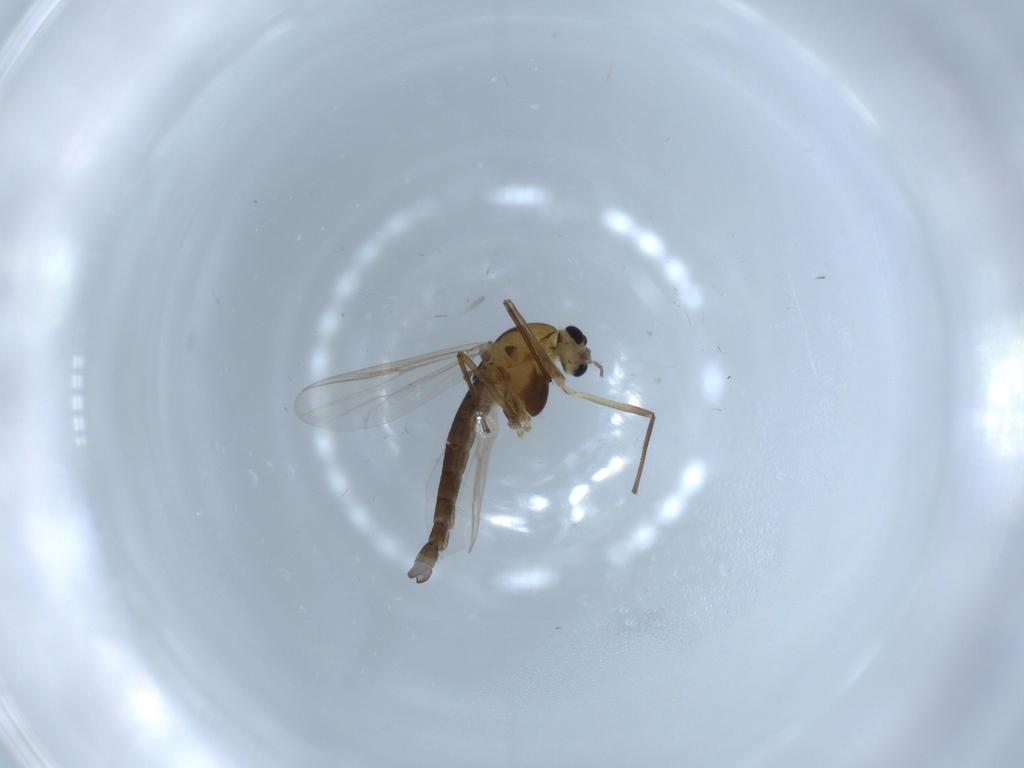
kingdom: Animalia
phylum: Arthropoda
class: Insecta
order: Diptera
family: Chironomidae
